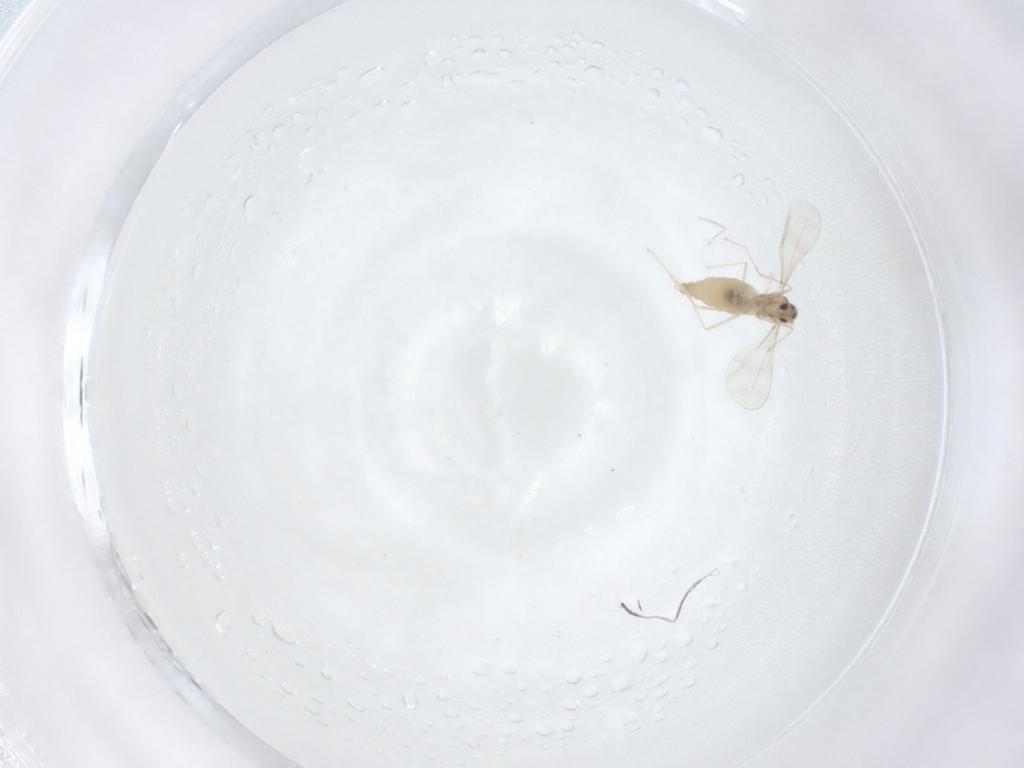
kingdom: Animalia
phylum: Arthropoda
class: Insecta
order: Diptera
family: Cecidomyiidae
